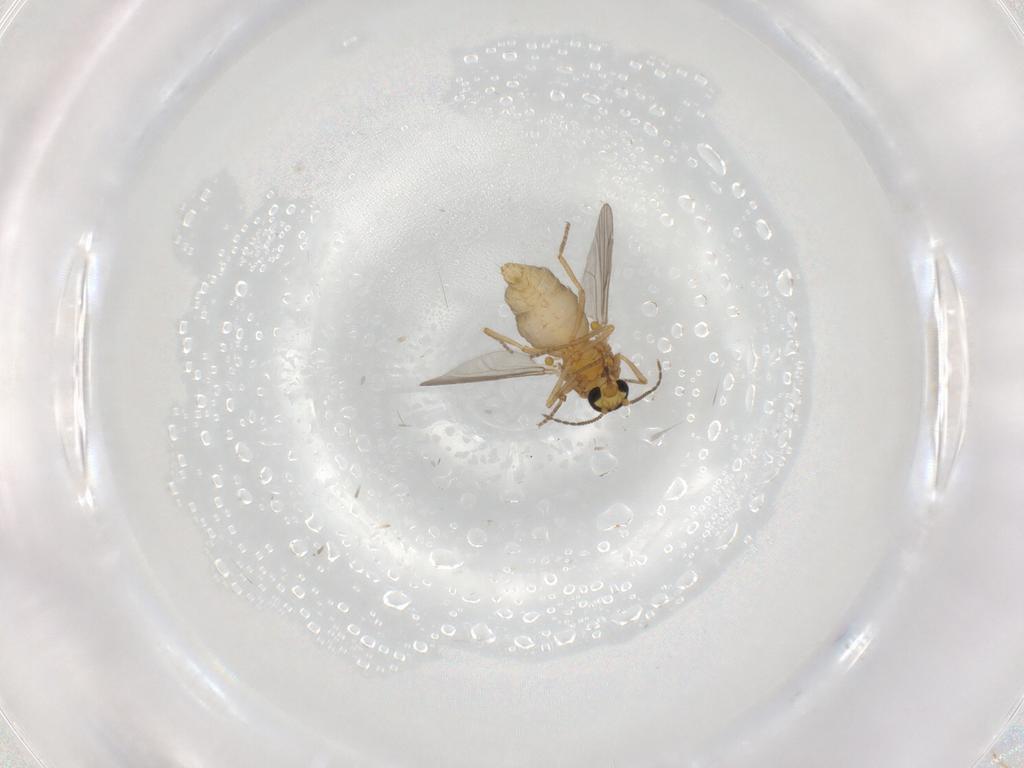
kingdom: Animalia
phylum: Arthropoda
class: Insecta
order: Diptera
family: Ceratopogonidae
